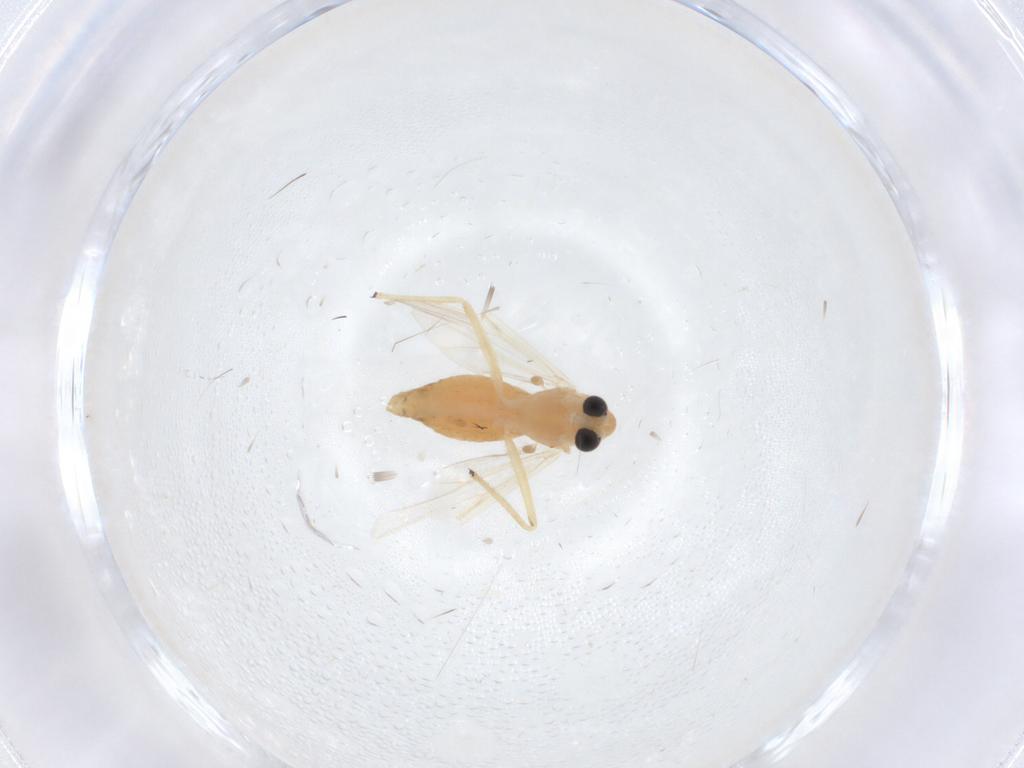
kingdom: Animalia
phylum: Arthropoda
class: Insecta
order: Diptera
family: Chironomidae
